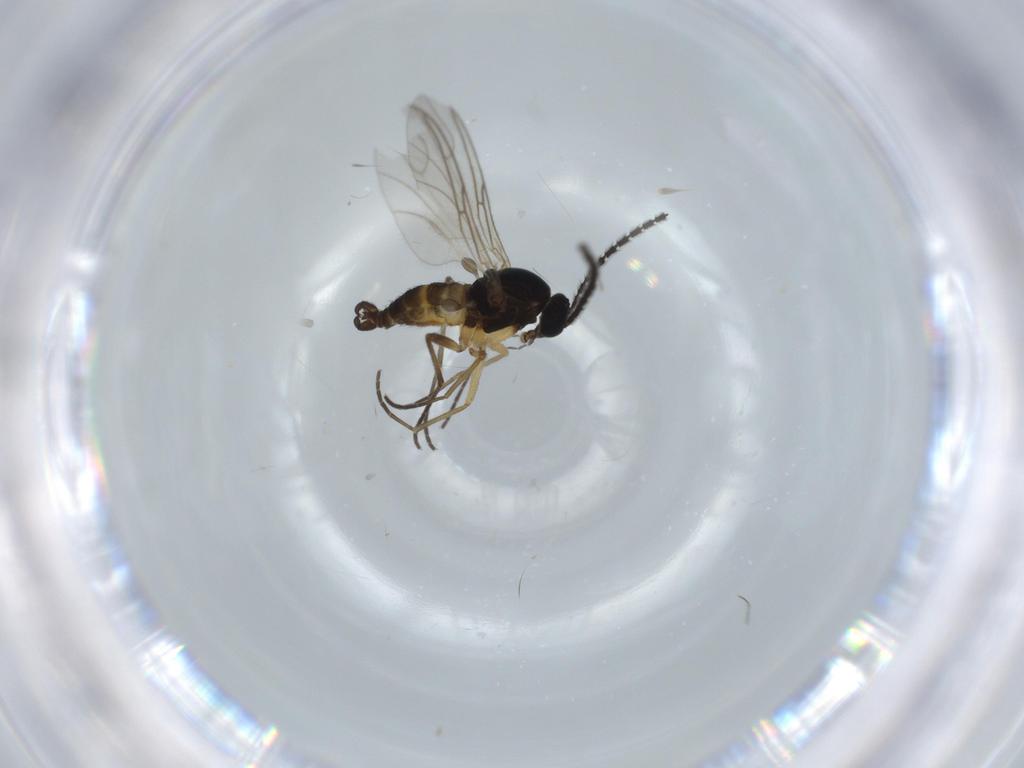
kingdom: Animalia
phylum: Arthropoda
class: Insecta
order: Diptera
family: Sciaridae
